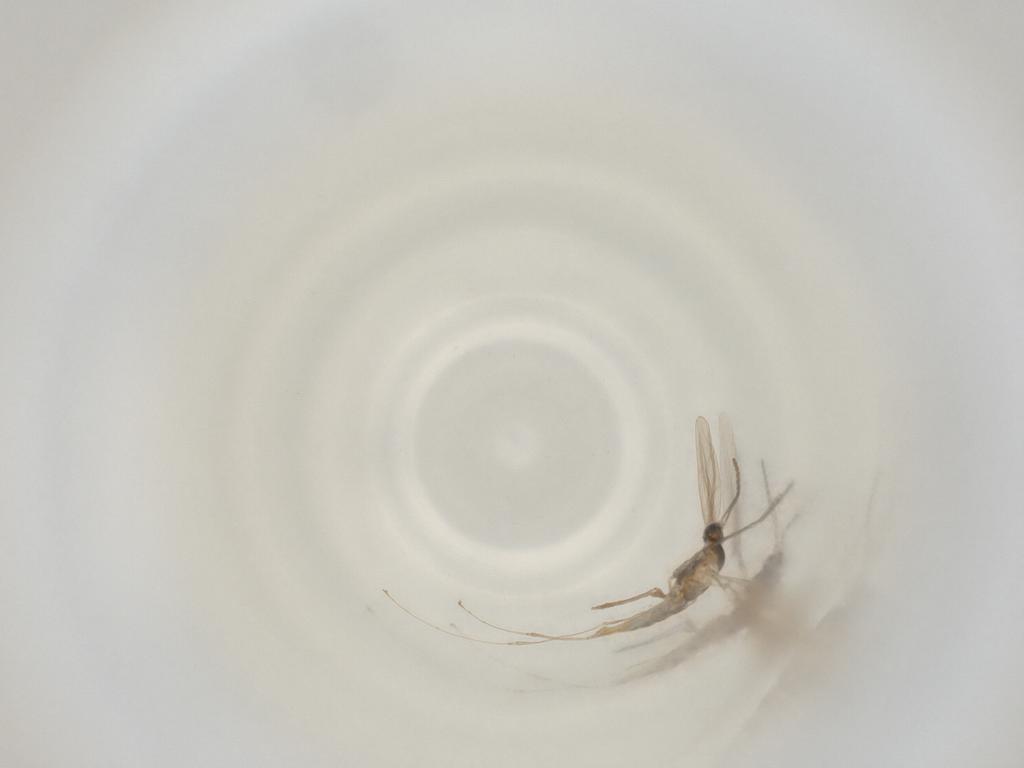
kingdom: Animalia
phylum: Arthropoda
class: Insecta
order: Diptera
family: Cecidomyiidae
